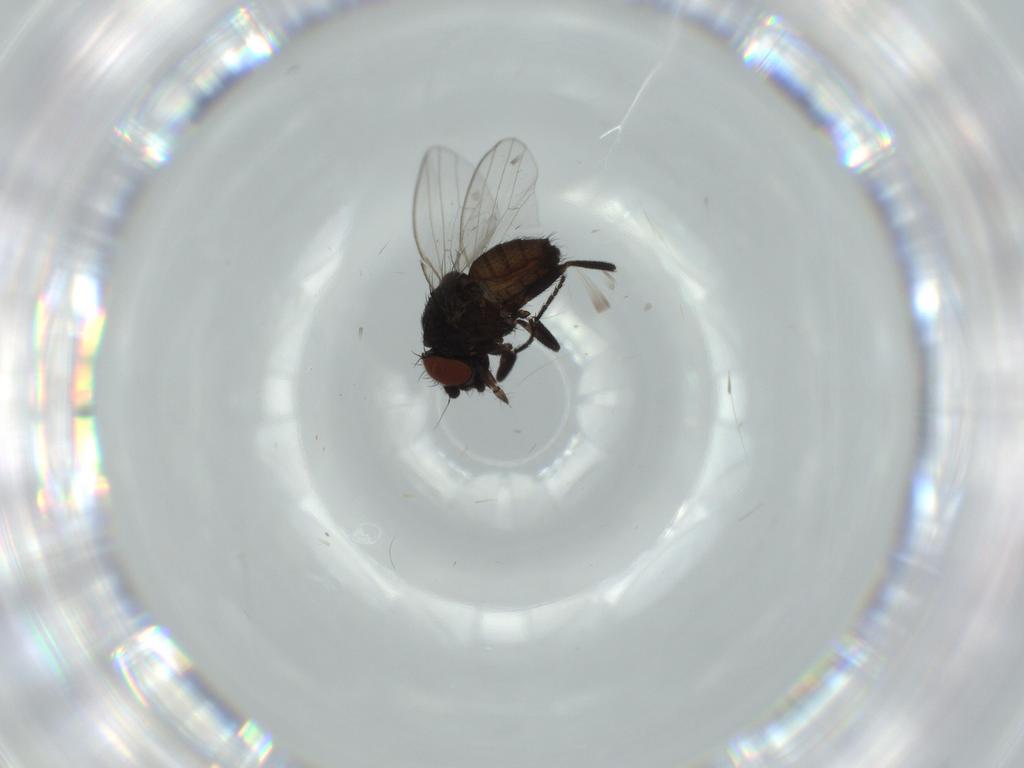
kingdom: Animalia
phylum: Arthropoda
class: Insecta
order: Diptera
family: Milichiidae
